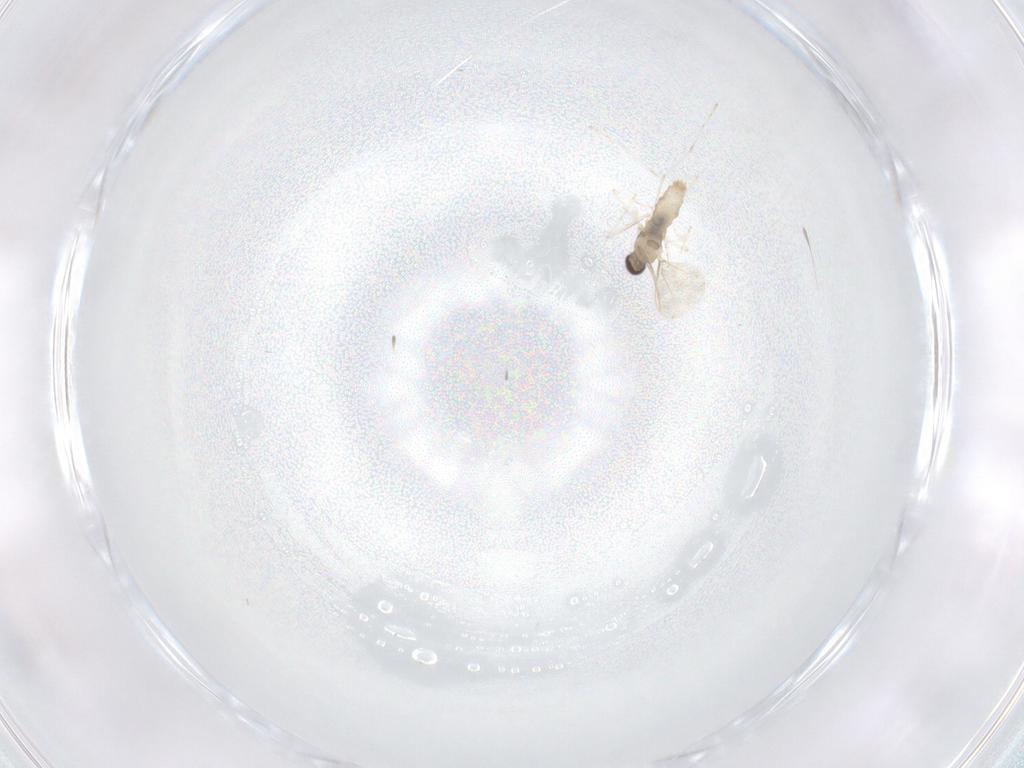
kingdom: Animalia
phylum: Arthropoda
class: Insecta
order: Diptera
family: Cecidomyiidae
